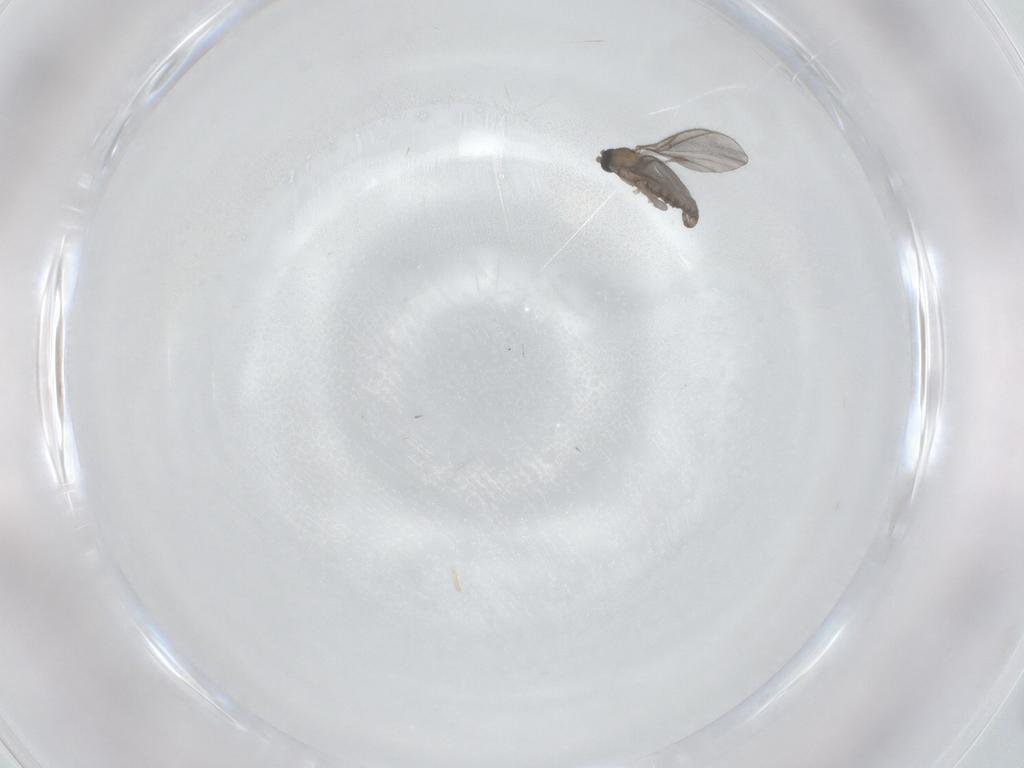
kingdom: Animalia
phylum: Arthropoda
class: Insecta
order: Diptera
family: Sciaridae
